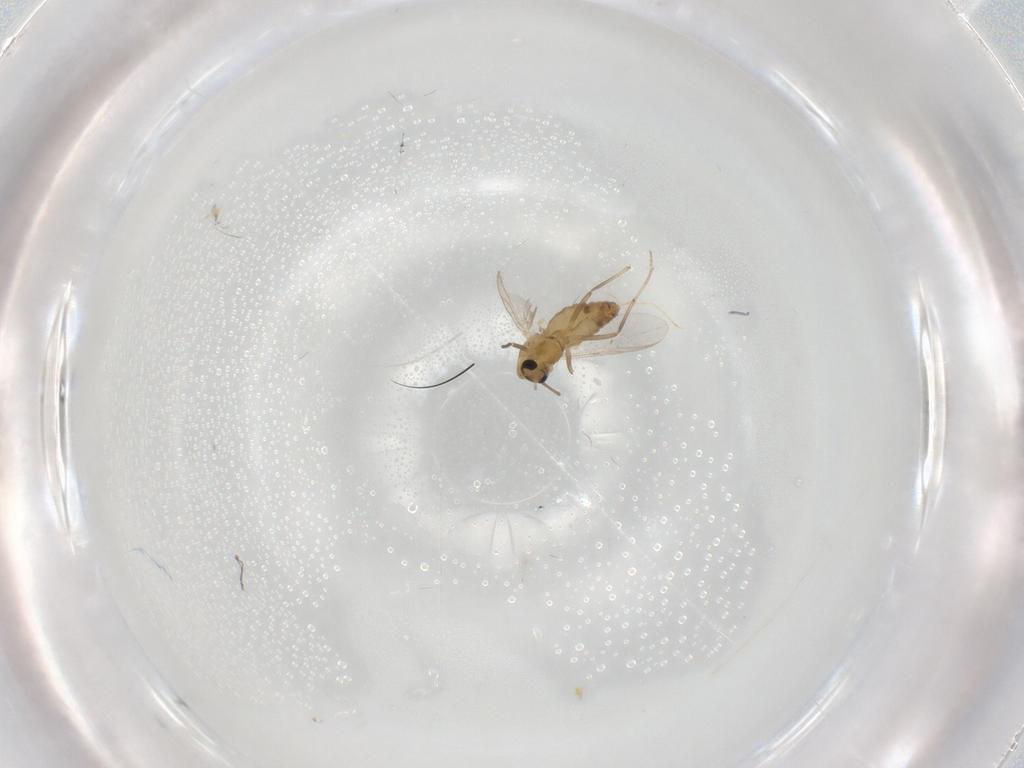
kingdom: Animalia
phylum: Arthropoda
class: Insecta
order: Diptera
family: Chironomidae
